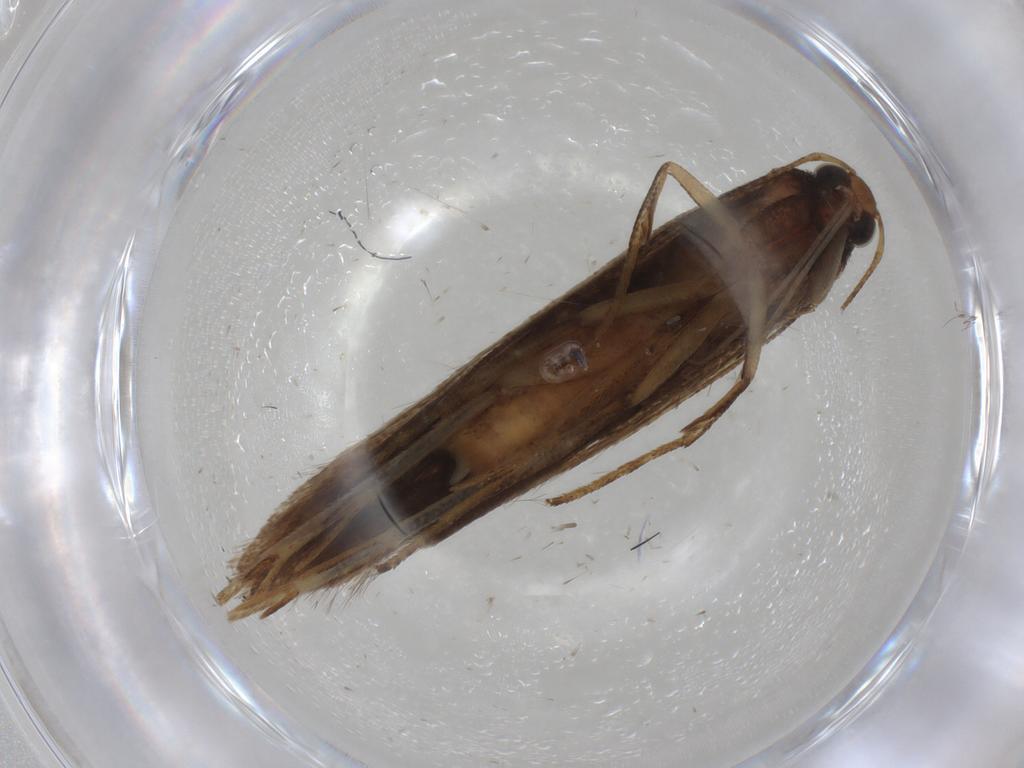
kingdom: Animalia
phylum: Arthropoda
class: Insecta
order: Lepidoptera
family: Gelechiidae
